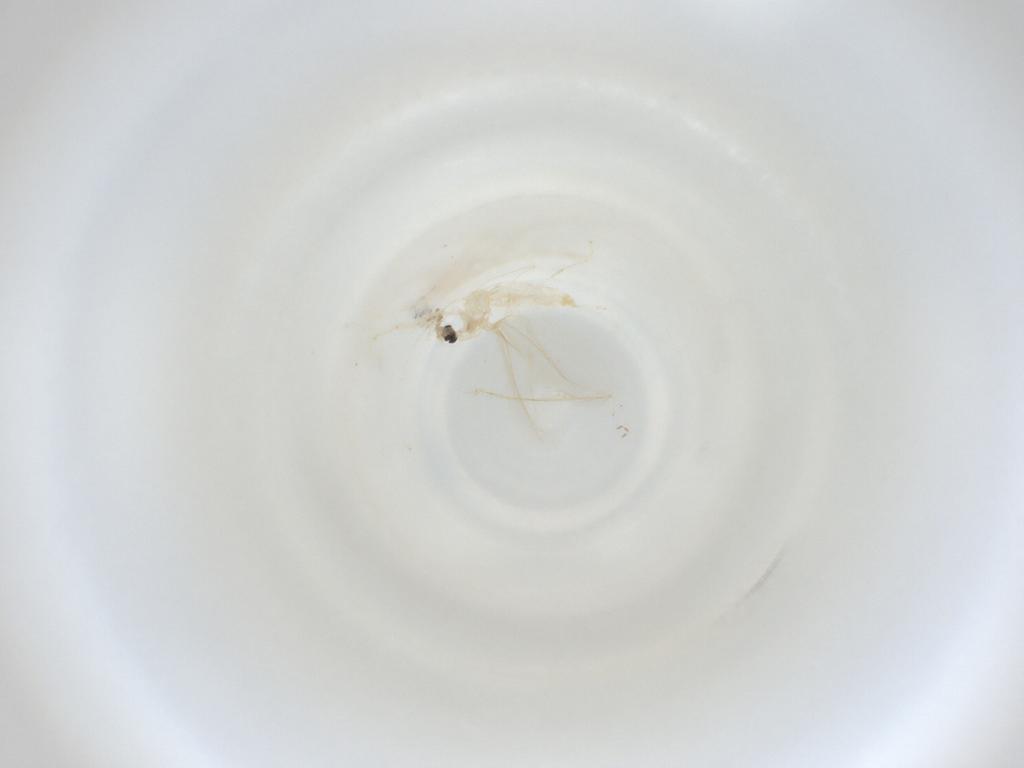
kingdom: Animalia
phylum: Arthropoda
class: Insecta
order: Diptera
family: Cecidomyiidae
